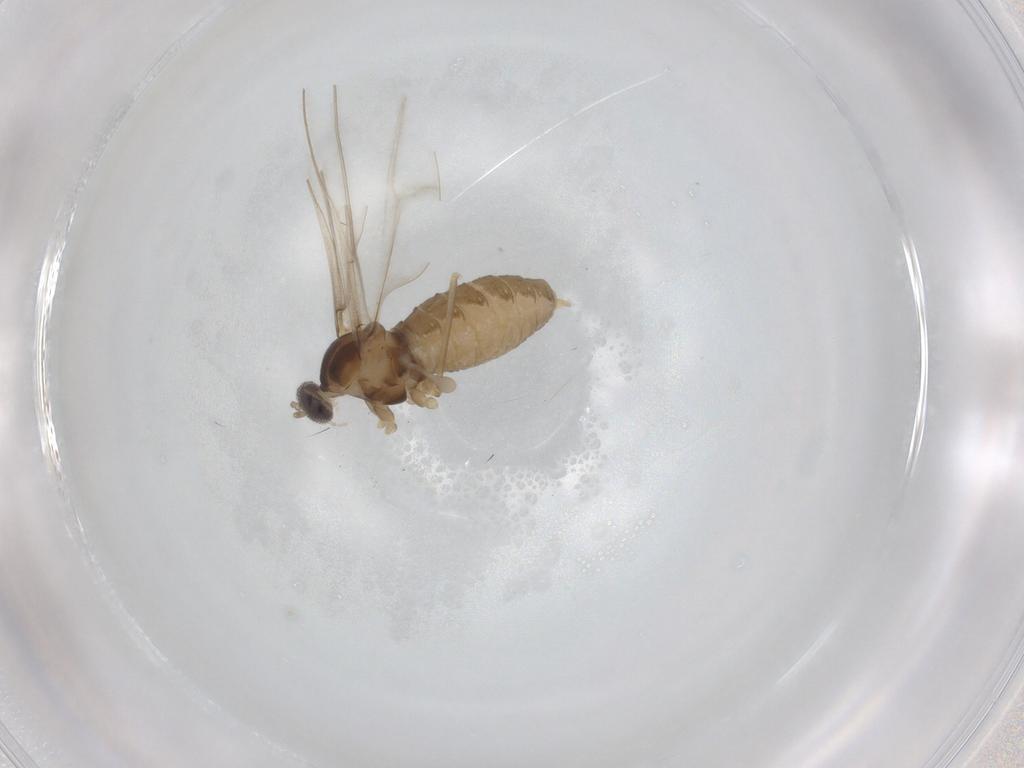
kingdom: Animalia
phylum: Arthropoda
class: Insecta
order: Diptera
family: Cecidomyiidae
